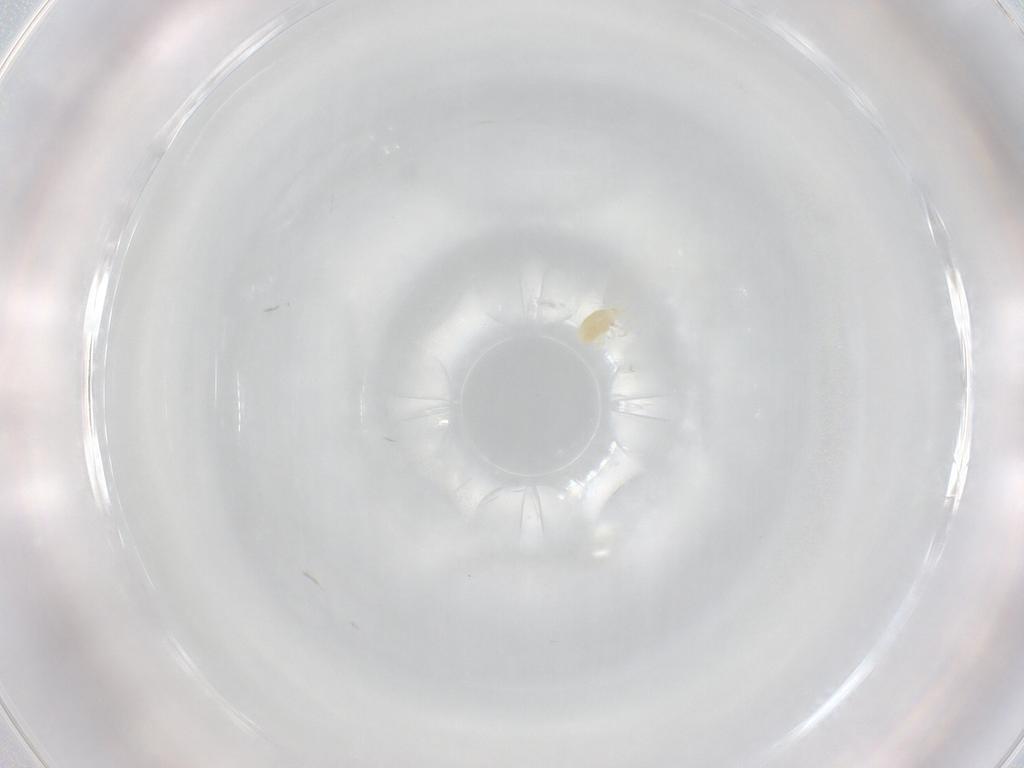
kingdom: Animalia
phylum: Arthropoda
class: Arachnida
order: Trombidiformes
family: Eupodidae
